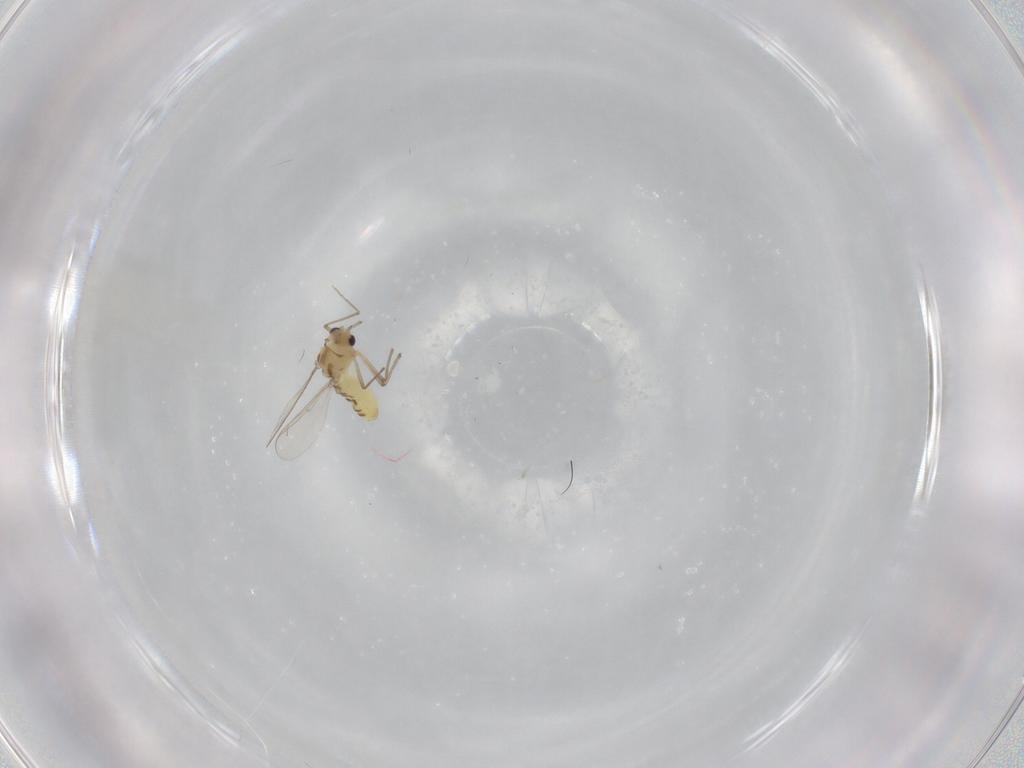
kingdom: Animalia
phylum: Arthropoda
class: Insecta
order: Diptera
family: Chironomidae
